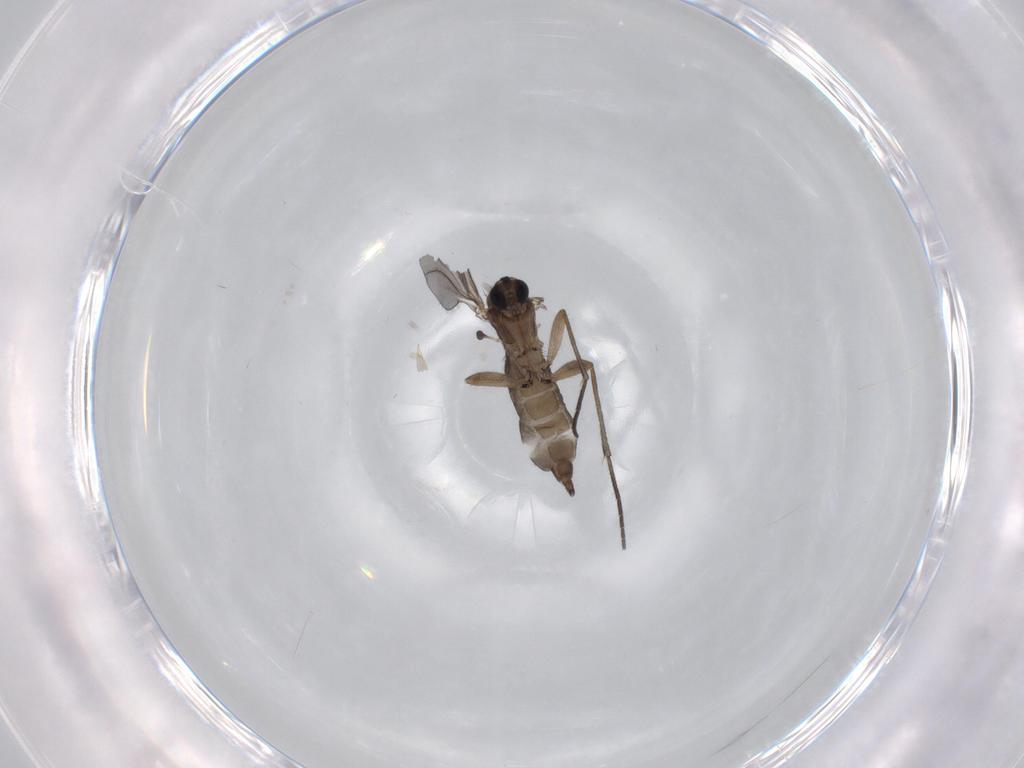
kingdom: Animalia
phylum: Arthropoda
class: Insecta
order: Diptera
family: Sciaridae
